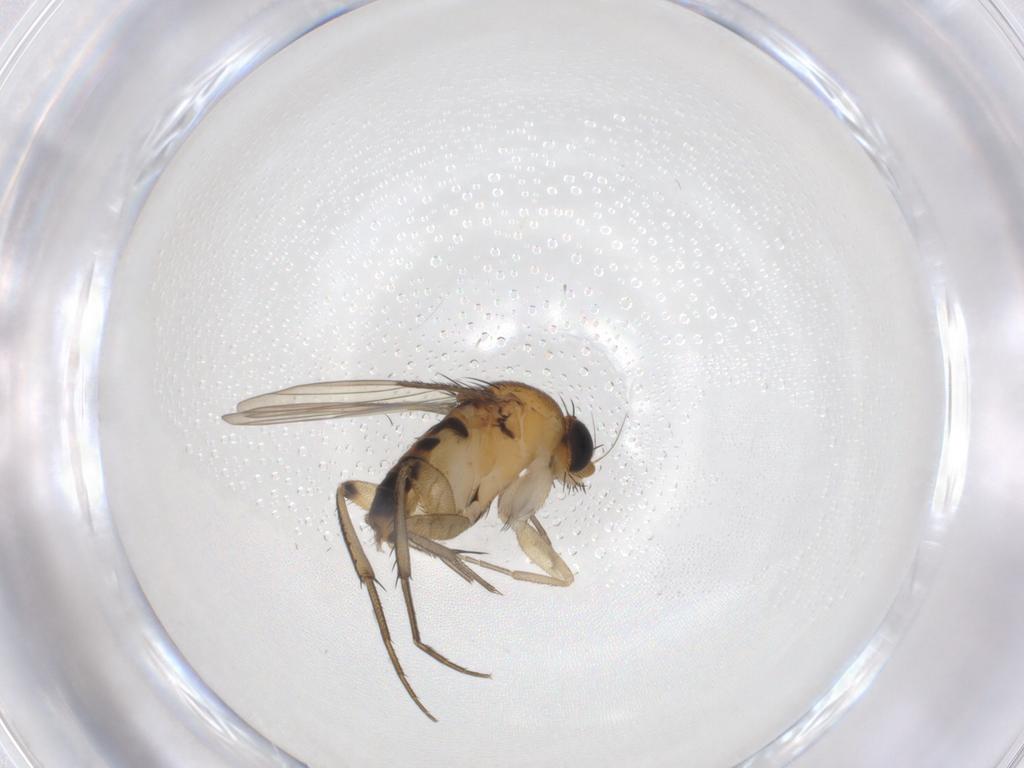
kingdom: Animalia
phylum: Arthropoda
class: Insecta
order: Diptera
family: Phoridae
